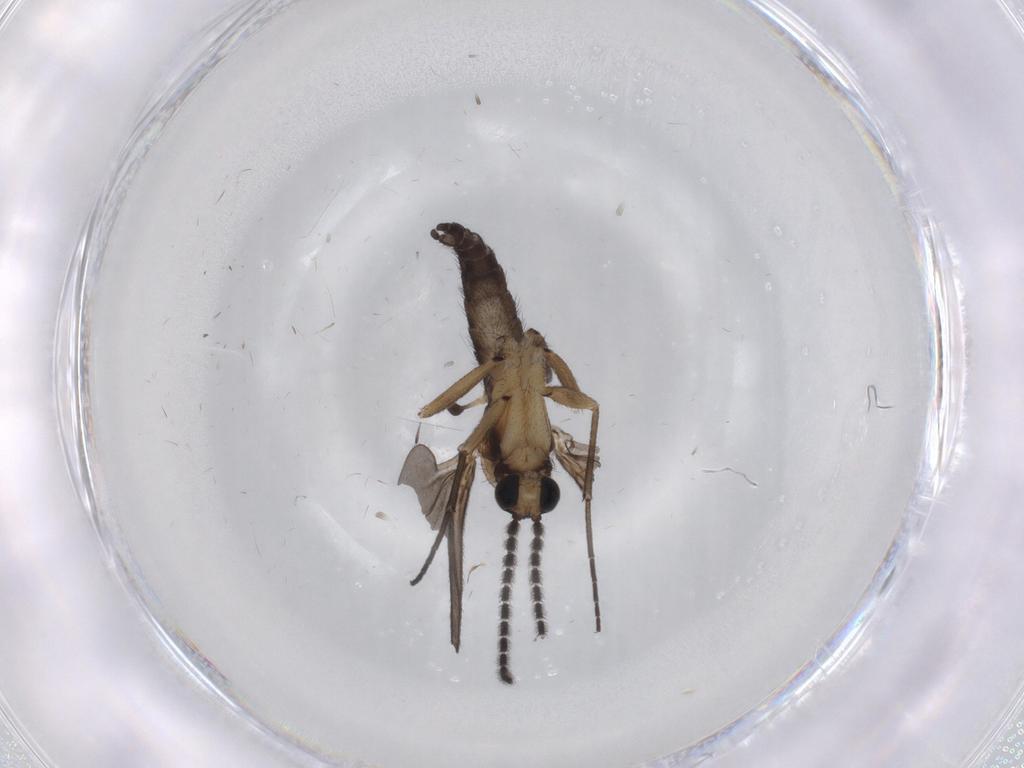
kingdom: Animalia
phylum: Arthropoda
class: Insecta
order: Diptera
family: Sciaridae
